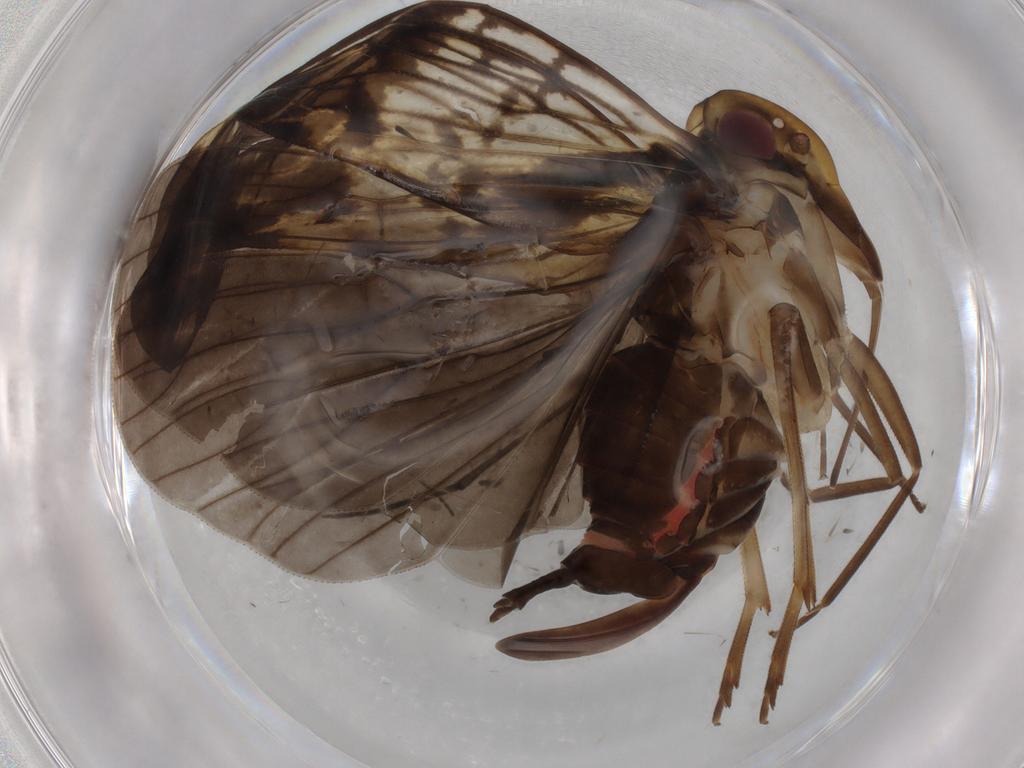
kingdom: Animalia
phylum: Arthropoda
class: Insecta
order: Hemiptera
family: Cixiidae
